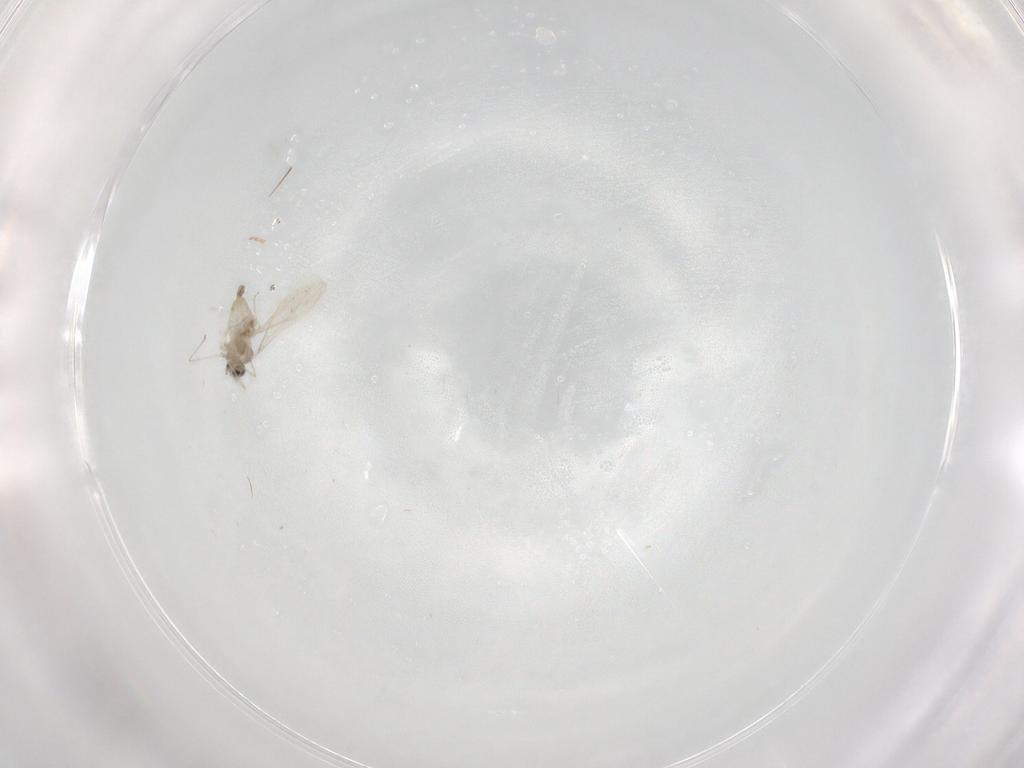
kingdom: Animalia
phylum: Arthropoda
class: Insecta
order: Diptera
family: Cecidomyiidae
